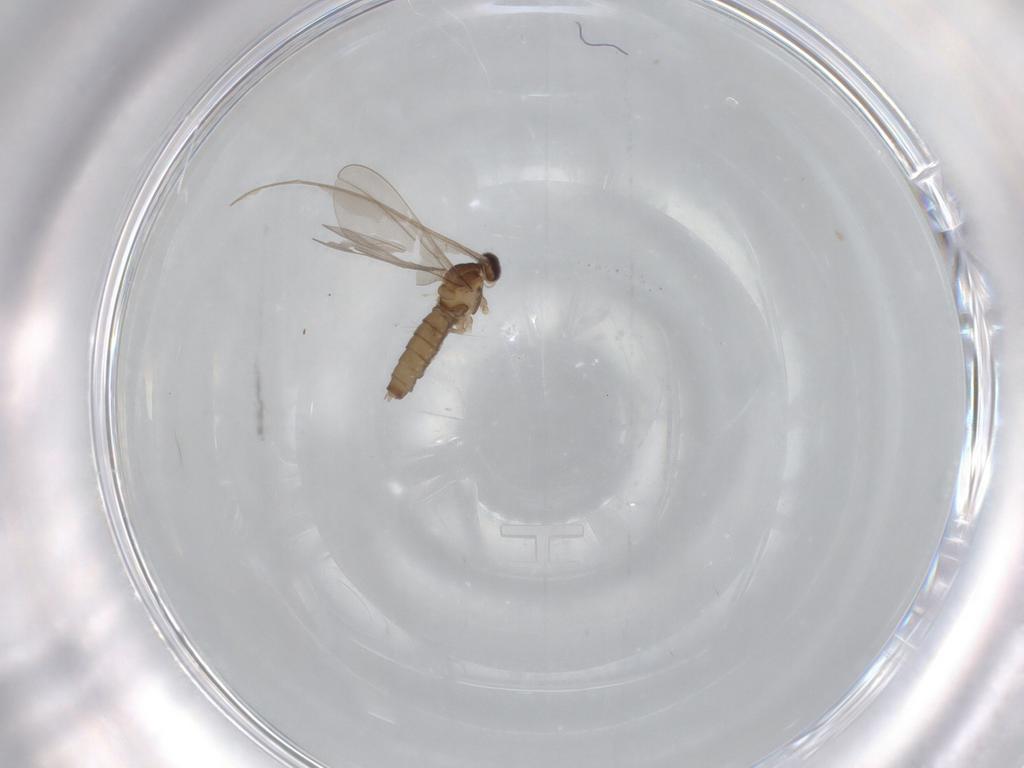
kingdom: Animalia
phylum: Arthropoda
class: Insecta
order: Diptera
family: Cecidomyiidae
